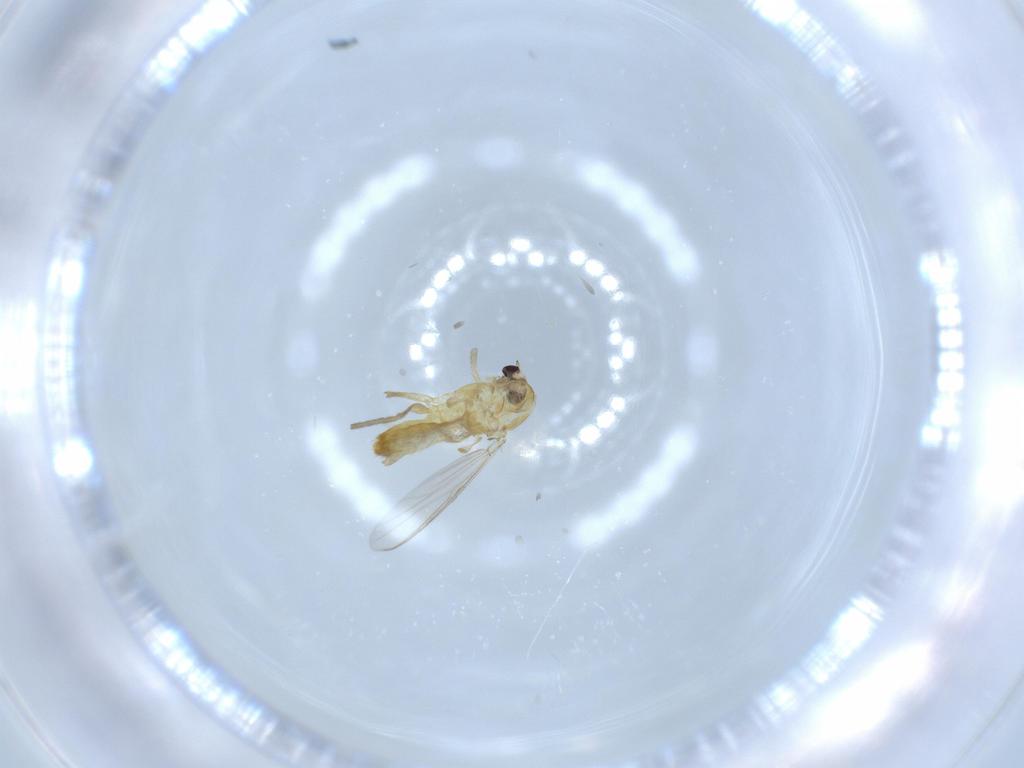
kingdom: Animalia
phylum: Arthropoda
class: Insecta
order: Diptera
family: Chironomidae
